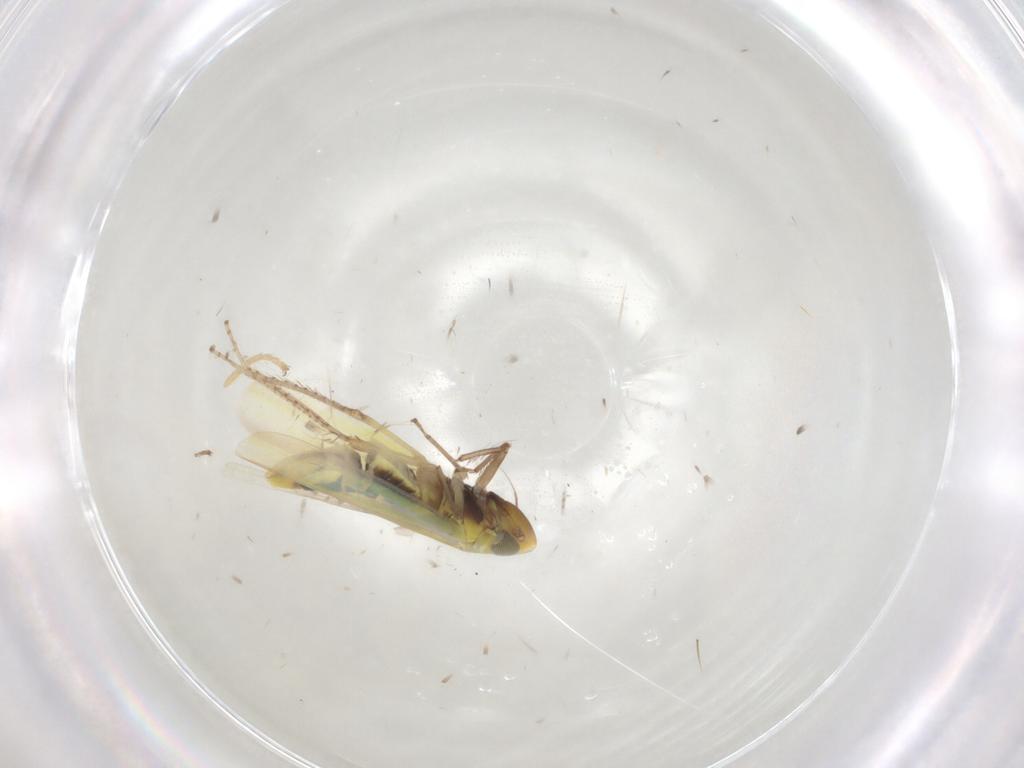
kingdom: Animalia
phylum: Arthropoda
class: Insecta
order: Hemiptera
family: Cicadellidae
